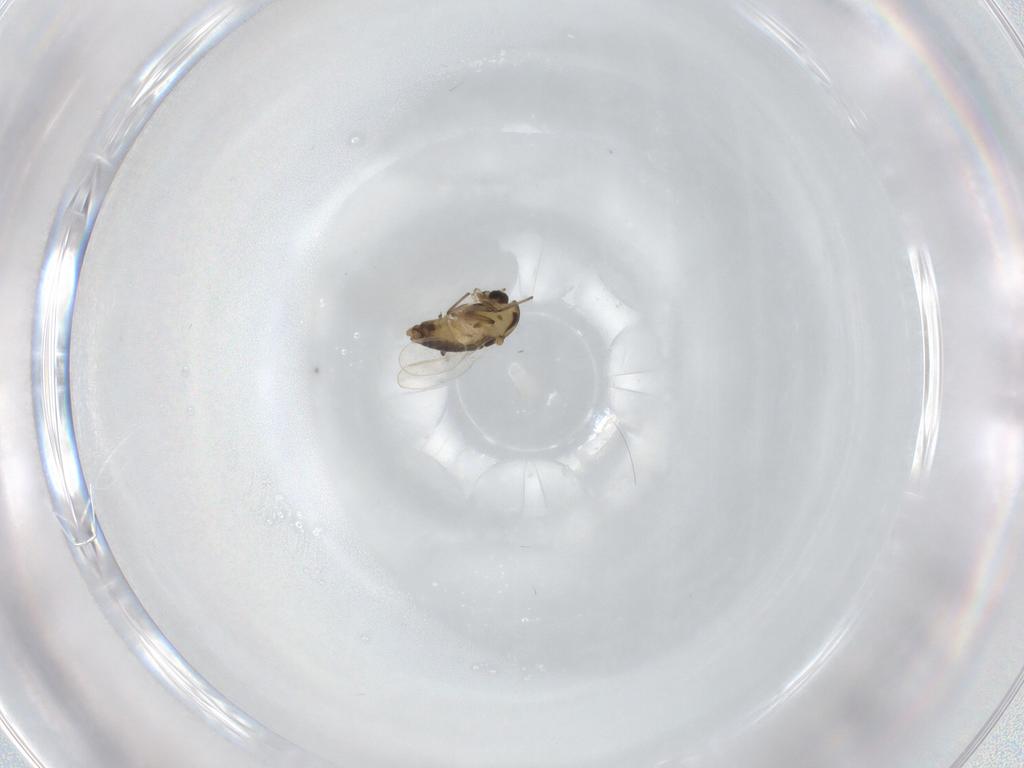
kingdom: Animalia
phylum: Arthropoda
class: Insecta
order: Diptera
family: Chironomidae
